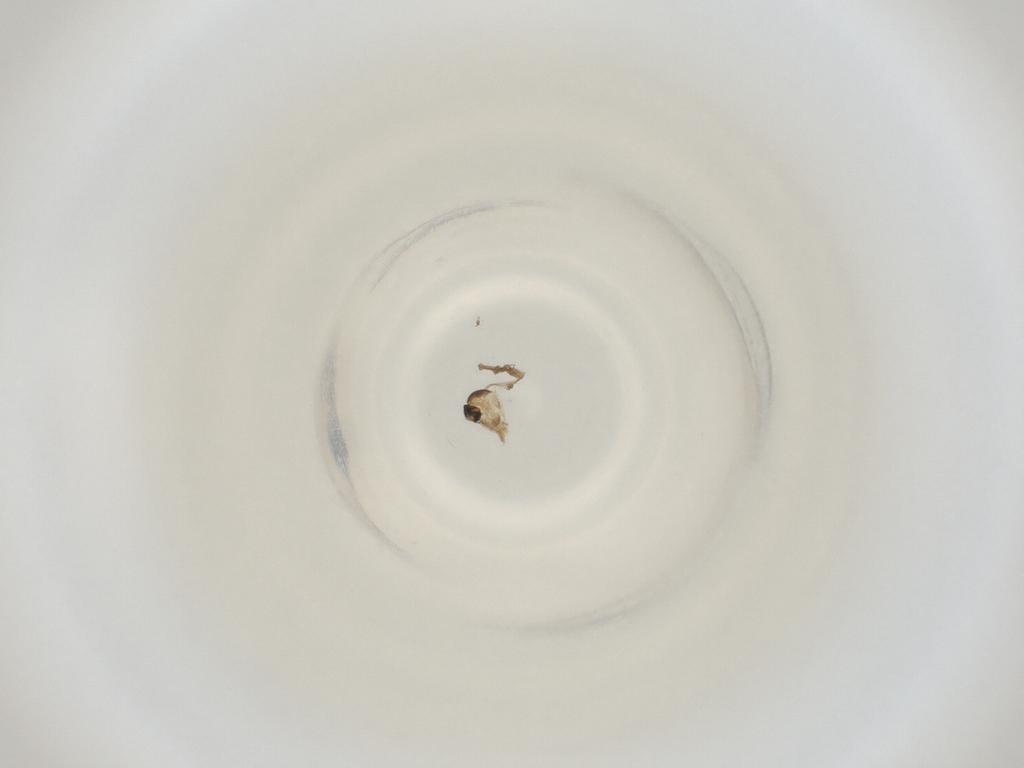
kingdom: Animalia
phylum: Arthropoda
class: Insecta
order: Diptera
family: Cecidomyiidae
